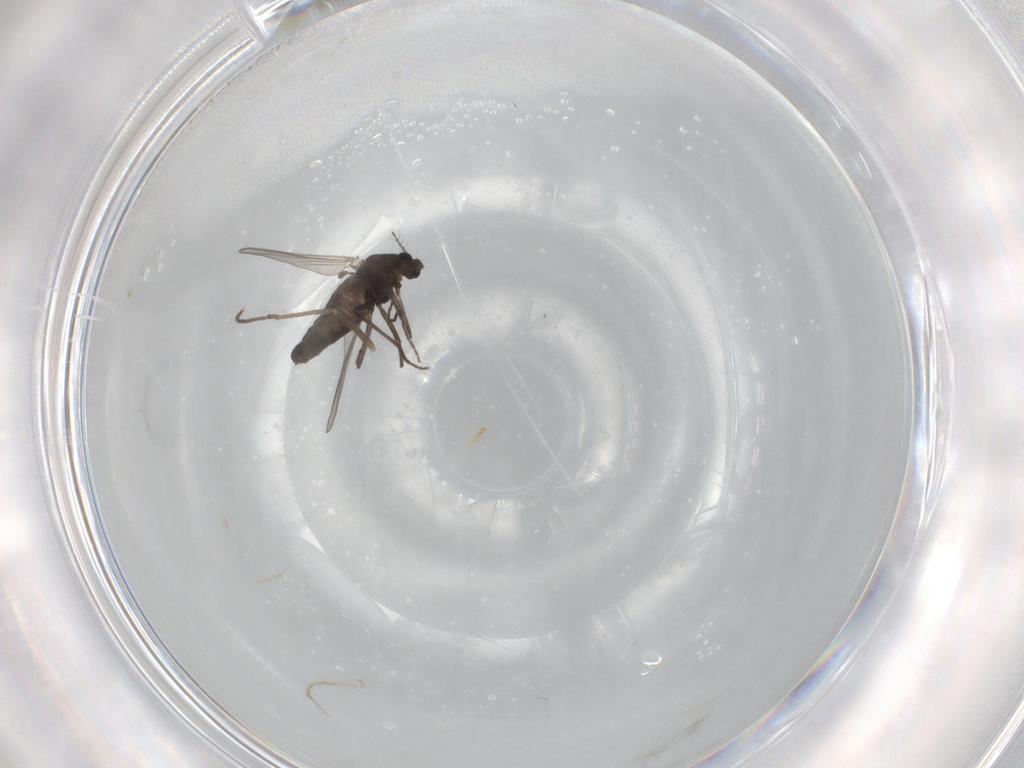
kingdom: Animalia
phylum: Arthropoda
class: Insecta
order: Diptera
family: Chironomidae
